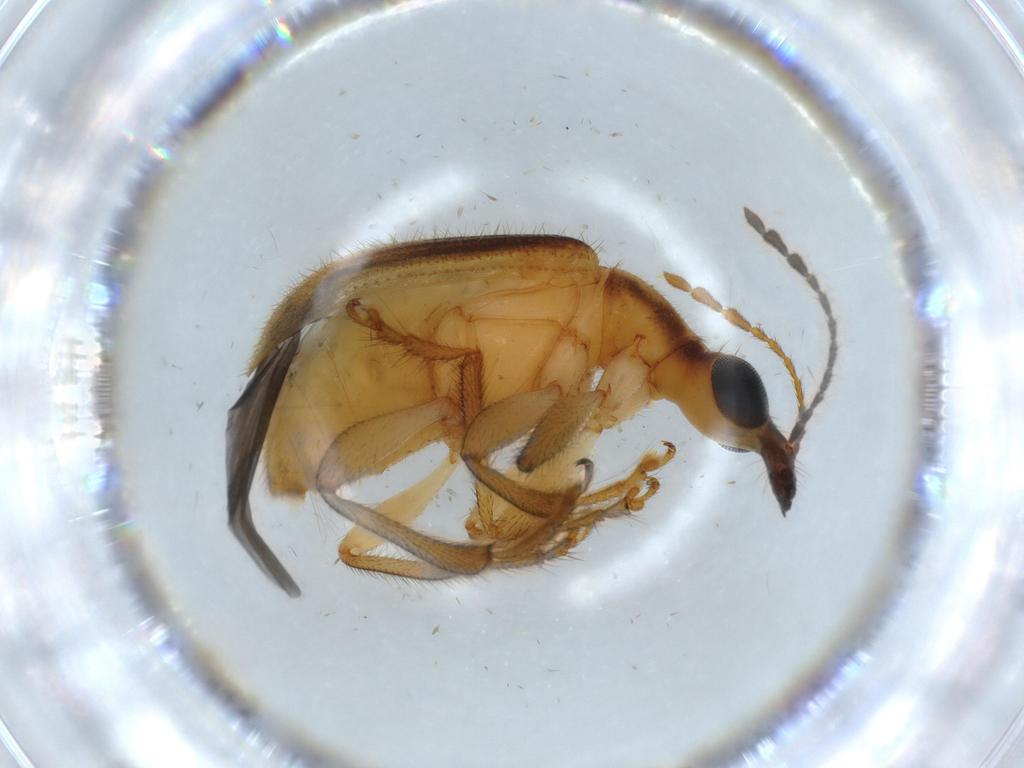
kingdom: Animalia
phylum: Arthropoda
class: Insecta
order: Coleoptera
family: Attelabidae
